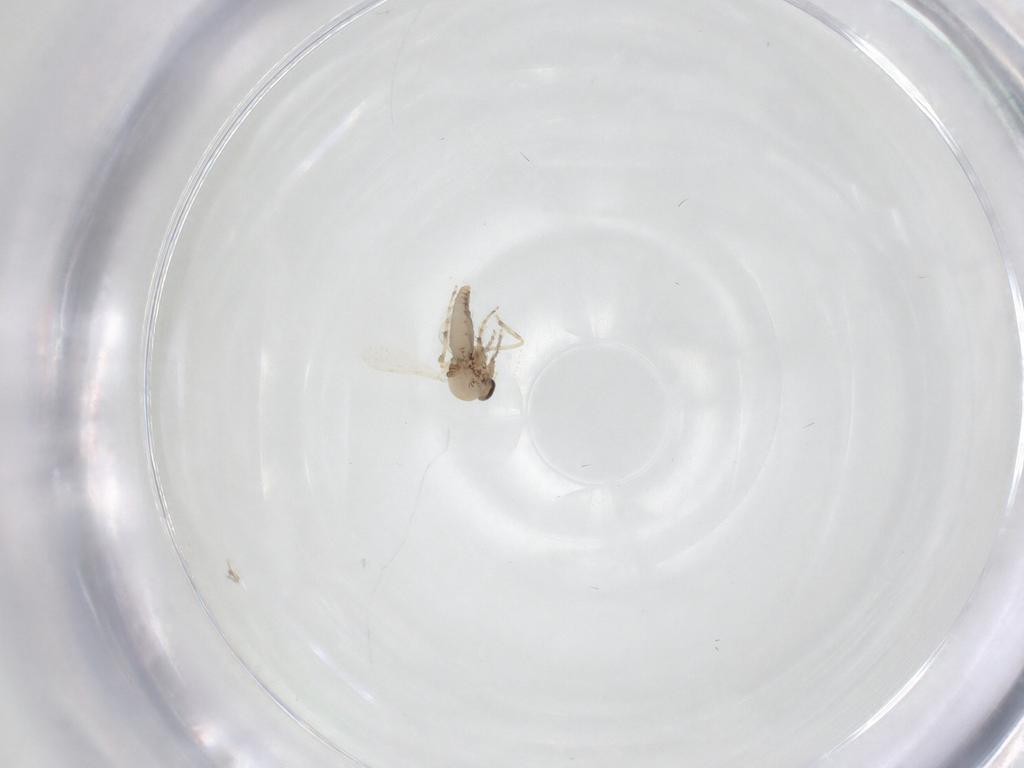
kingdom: Animalia
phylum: Arthropoda
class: Insecta
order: Diptera
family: Ceratopogonidae
